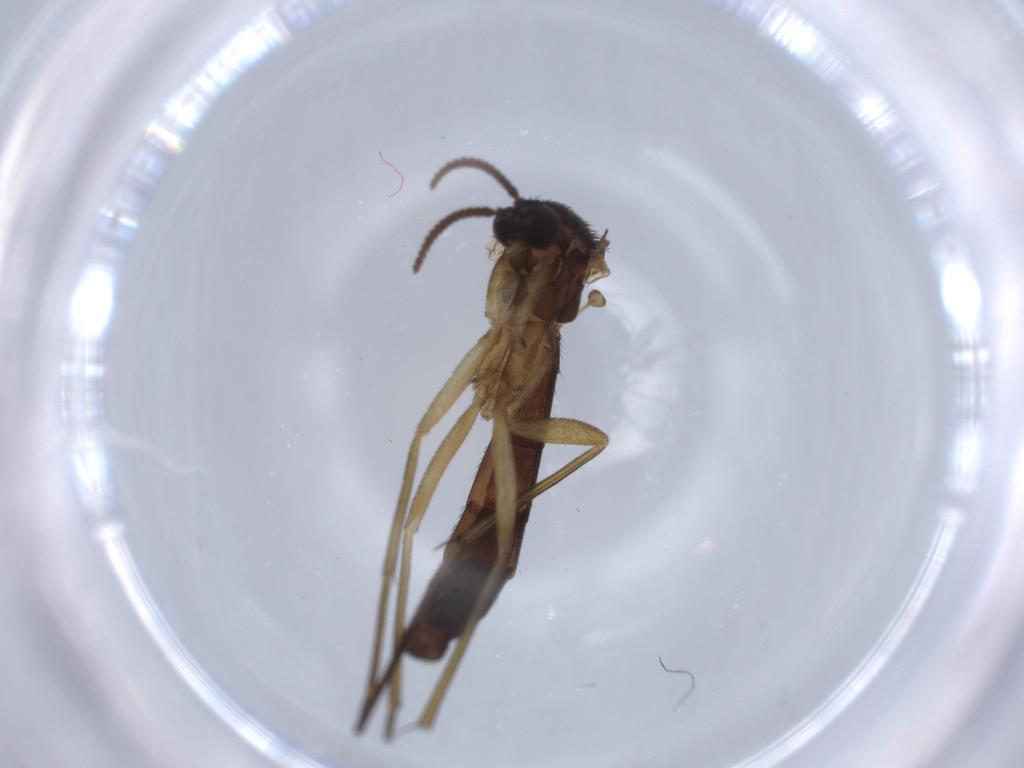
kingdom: Animalia
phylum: Arthropoda
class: Insecta
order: Diptera
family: Keroplatidae
